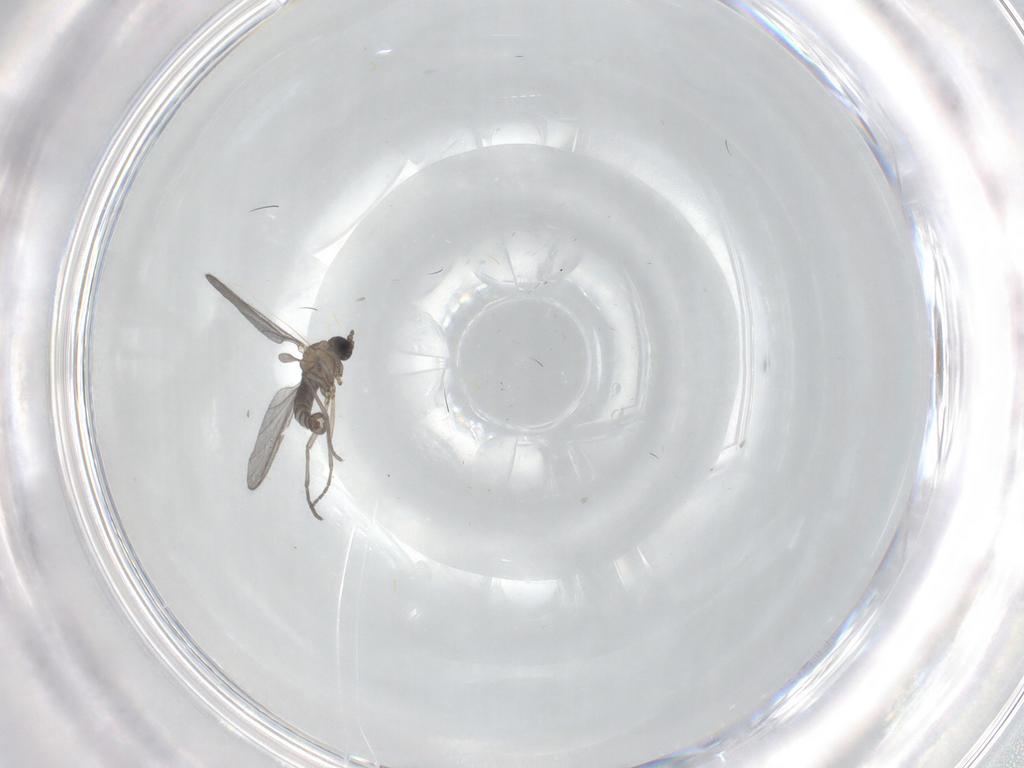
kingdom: Animalia
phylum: Arthropoda
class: Insecta
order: Diptera
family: Sciaridae
